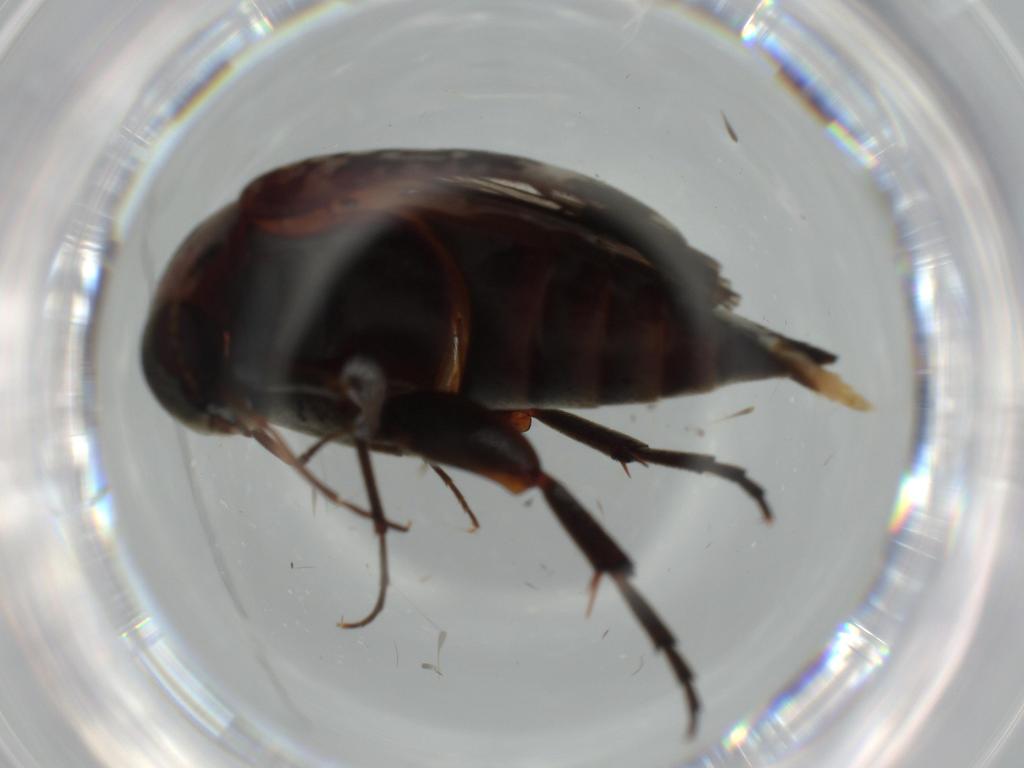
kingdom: Animalia
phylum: Arthropoda
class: Insecta
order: Coleoptera
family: Mordellidae
